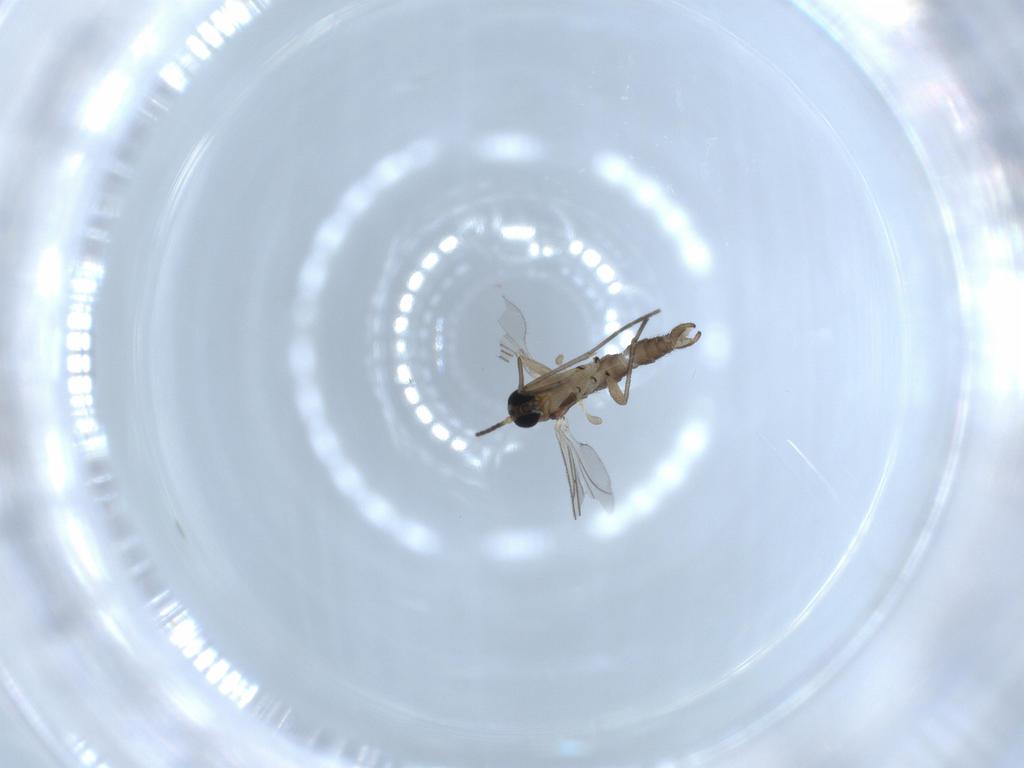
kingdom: Animalia
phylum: Arthropoda
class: Insecta
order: Diptera
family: Sciaridae
